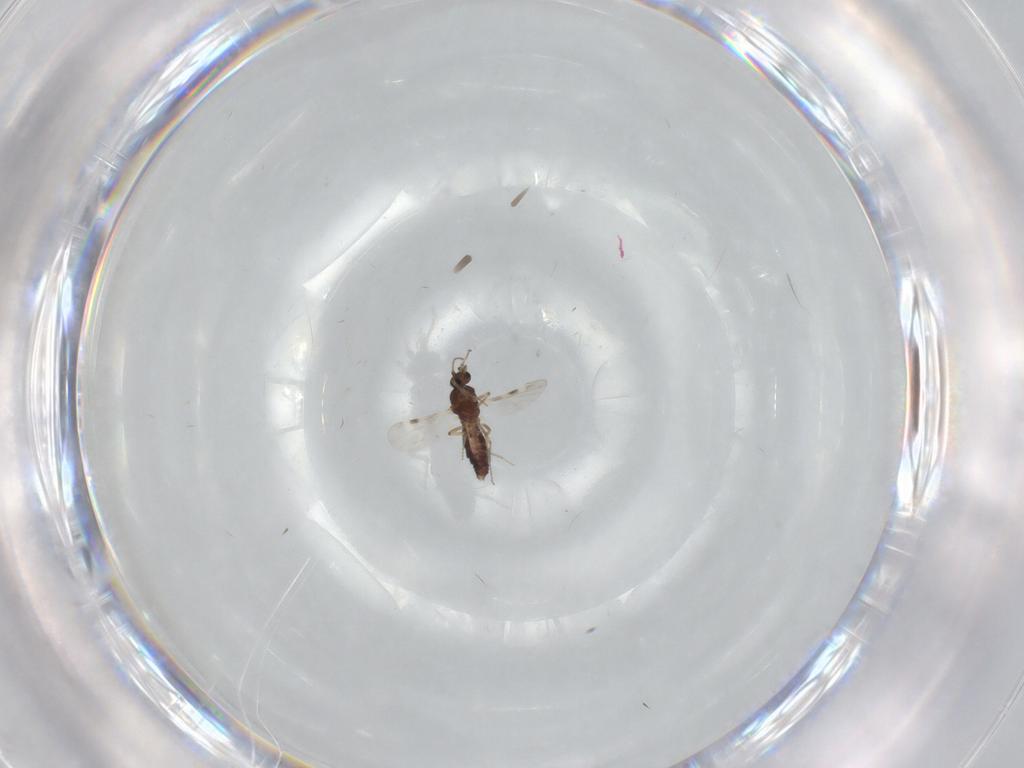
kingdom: Animalia
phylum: Arthropoda
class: Insecta
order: Diptera
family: Psychodidae
